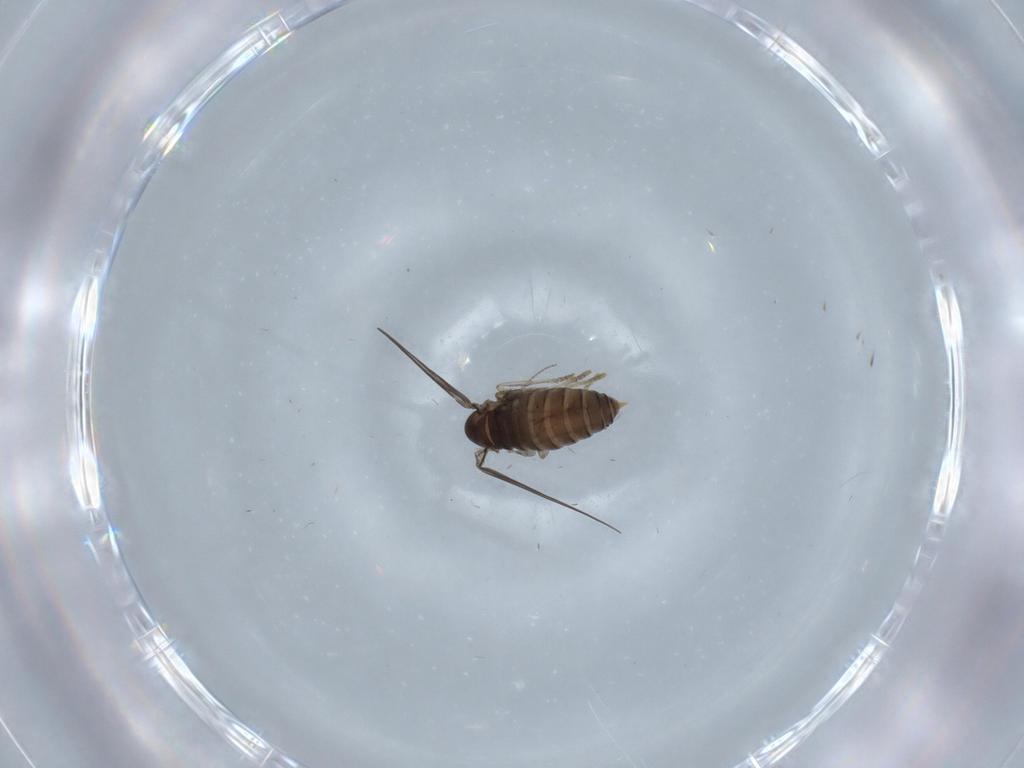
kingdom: Animalia
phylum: Arthropoda
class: Insecta
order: Diptera
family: Psychodidae
